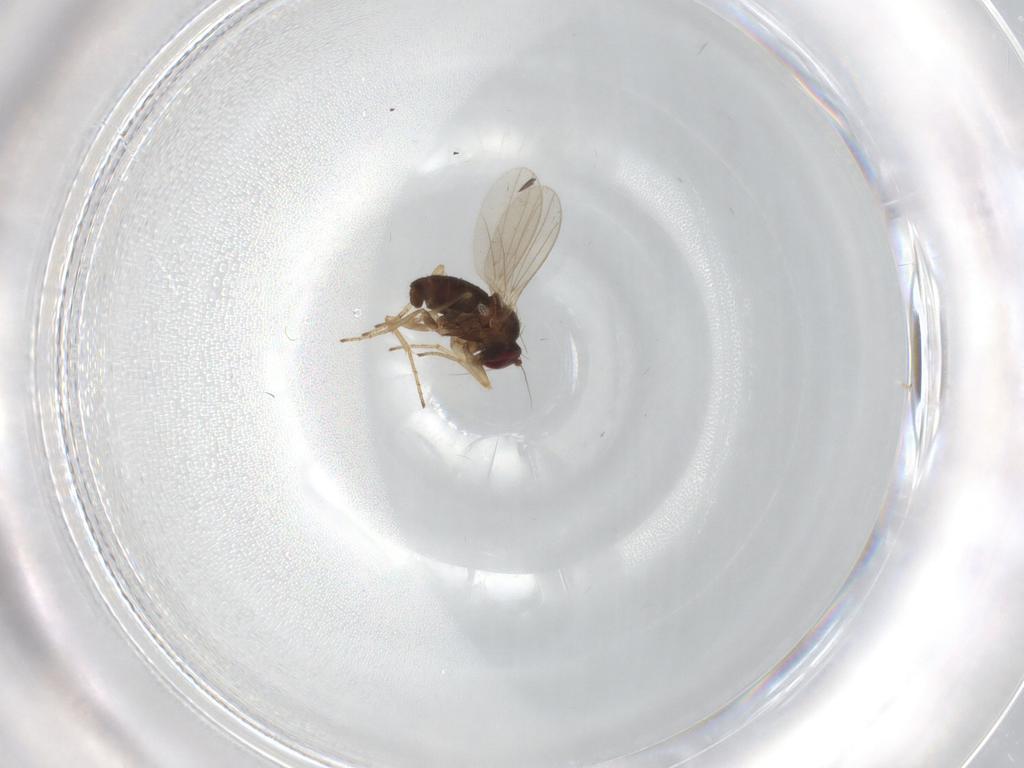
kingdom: Animalia
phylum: Arthropoda
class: Insecta
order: Diptera
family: Dolichopodidae
